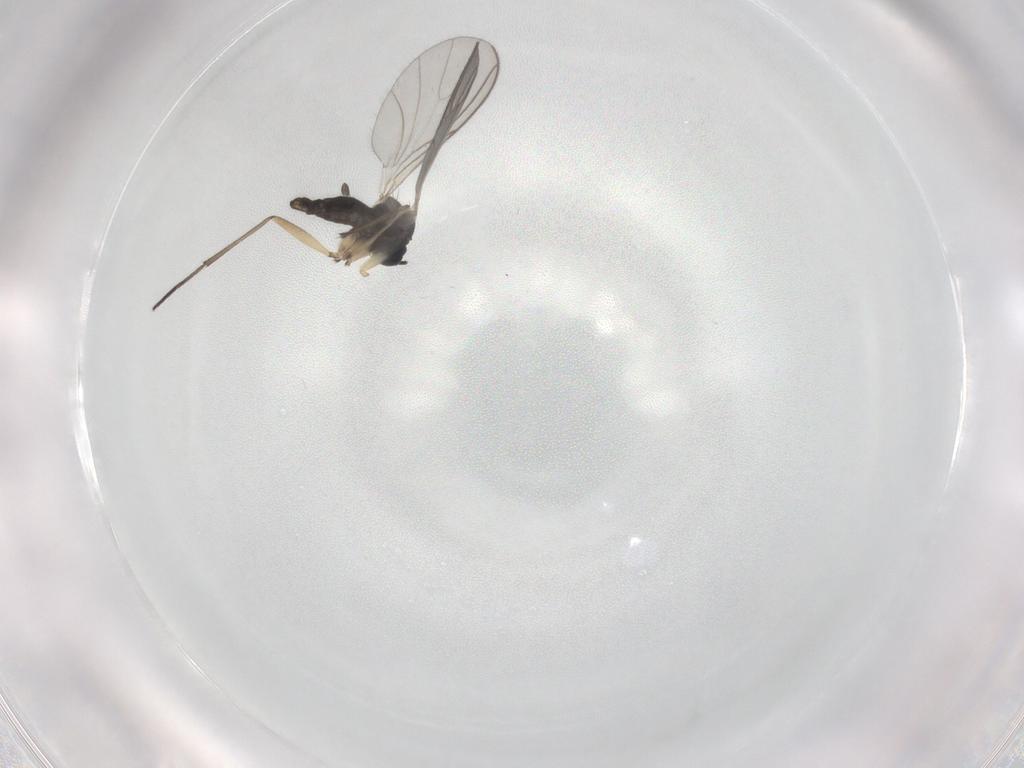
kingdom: Animalia
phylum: Arthropoda
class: Insecta
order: Diptera
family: Sciaridae
